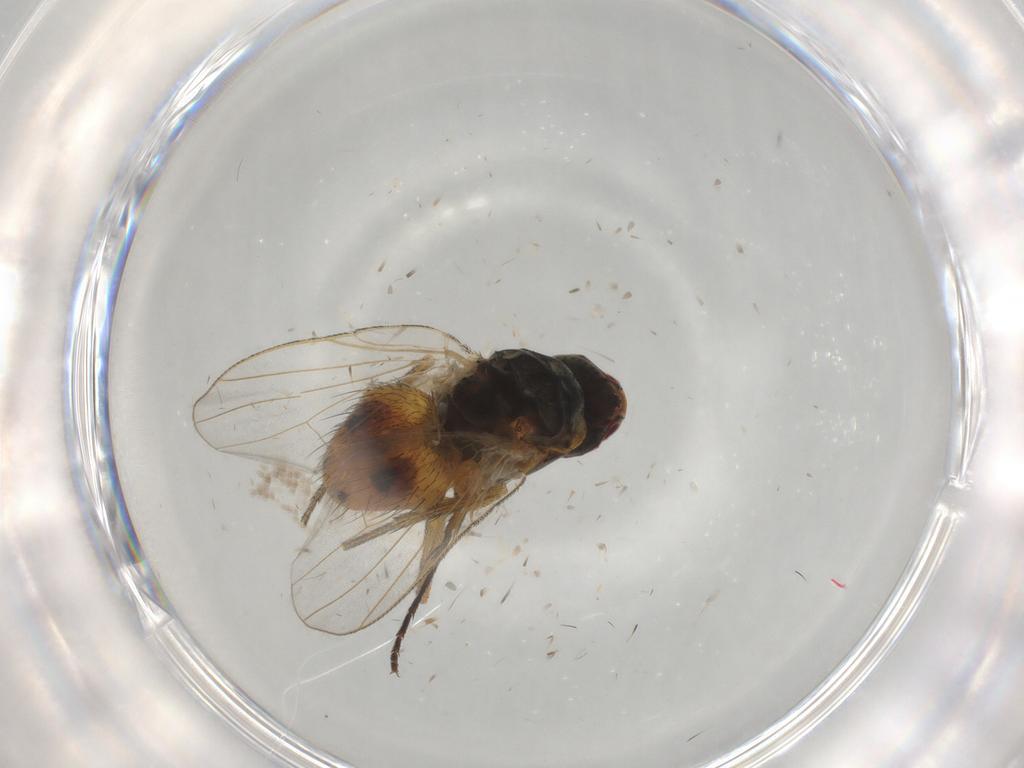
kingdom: Animalia
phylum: Arthropoda
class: Insecta
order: Diptera
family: Muscidae
